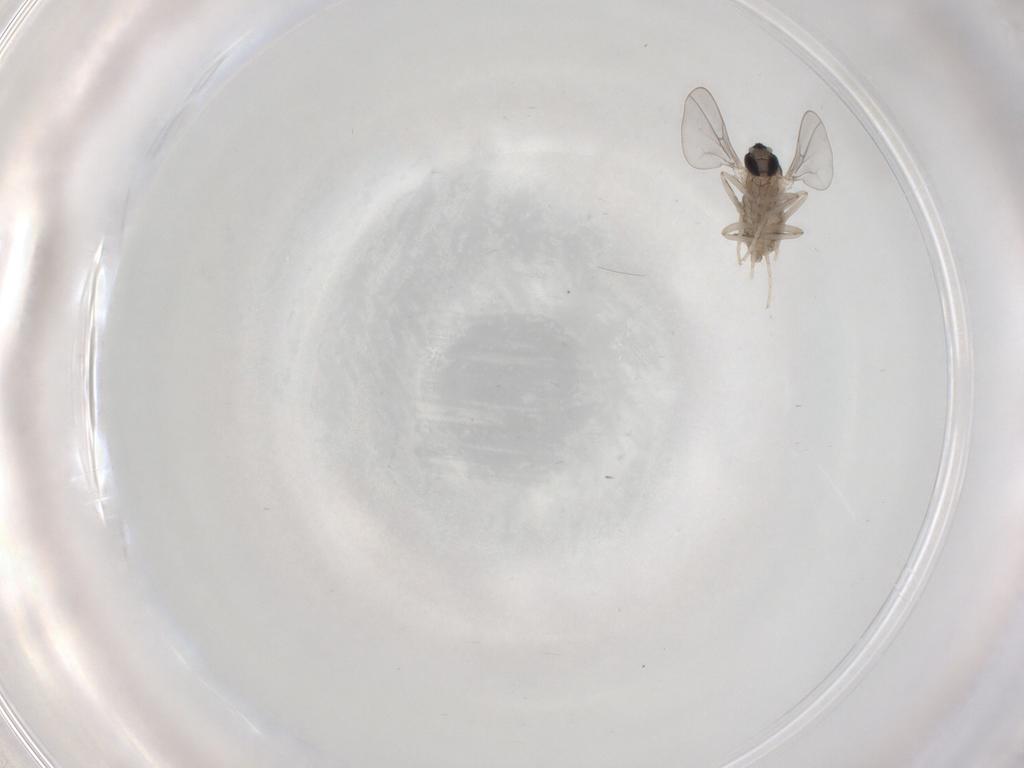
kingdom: Animalia
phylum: Arthropoda
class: Insecta
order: Diptera
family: Sciaridae
